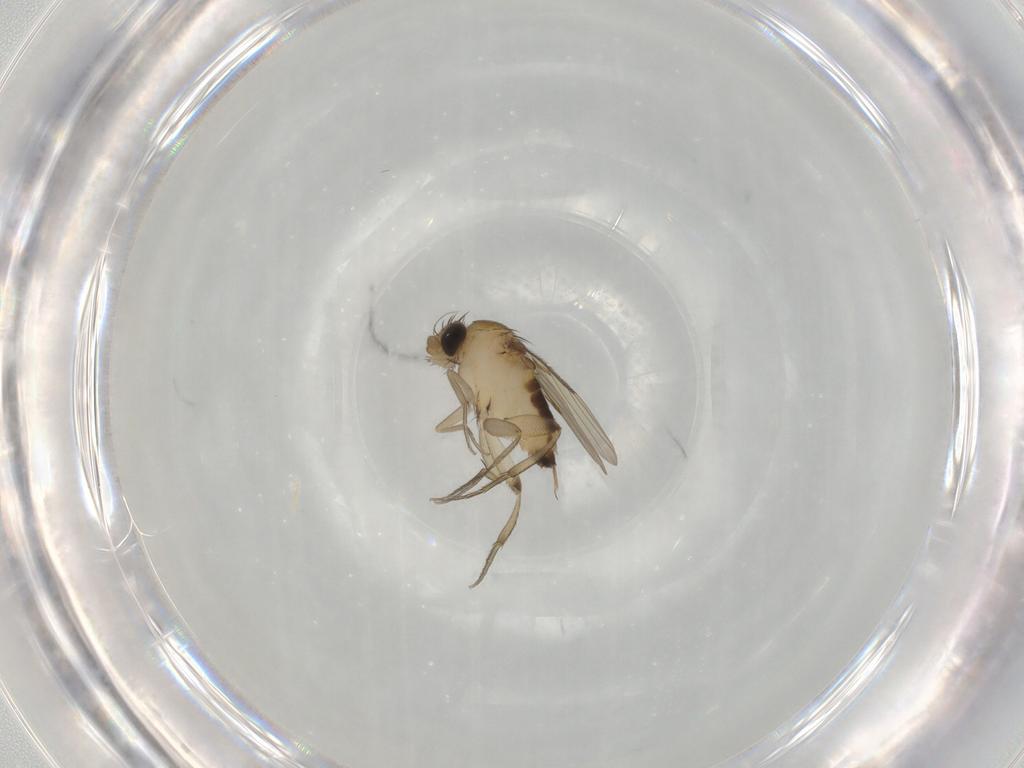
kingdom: Animalia
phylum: Arthropoda
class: Insecta
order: Diptera
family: Phoridae
